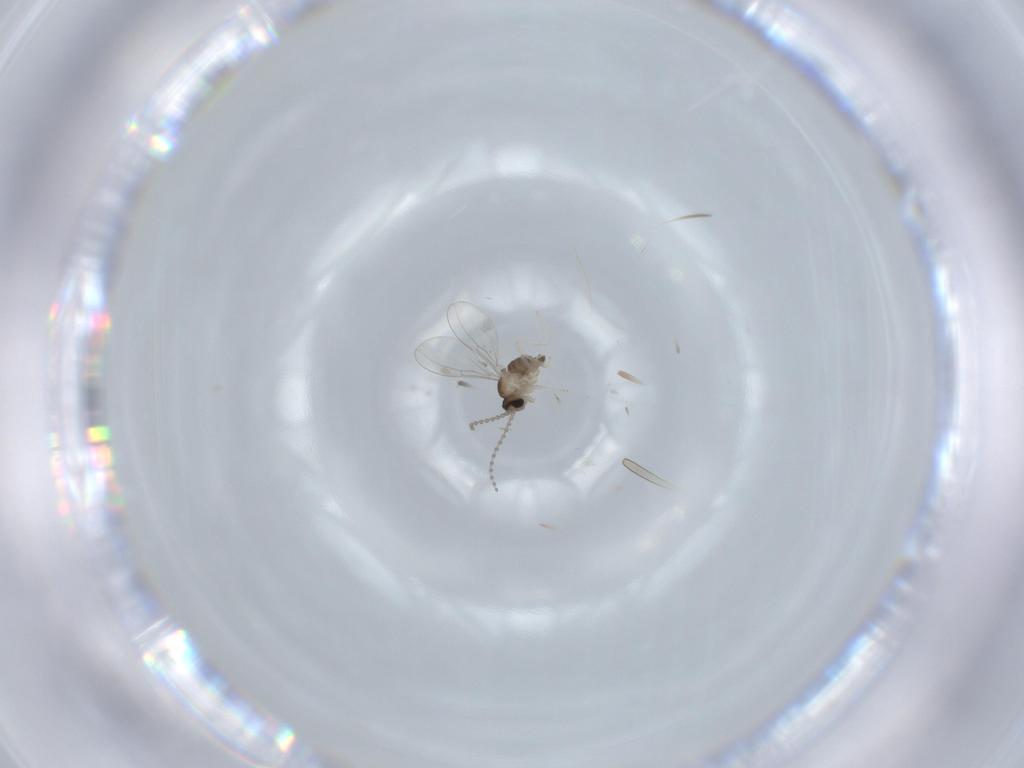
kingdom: Animalia
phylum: Arthropoda
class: Insecta
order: Diptera
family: Cecidomyiidae
